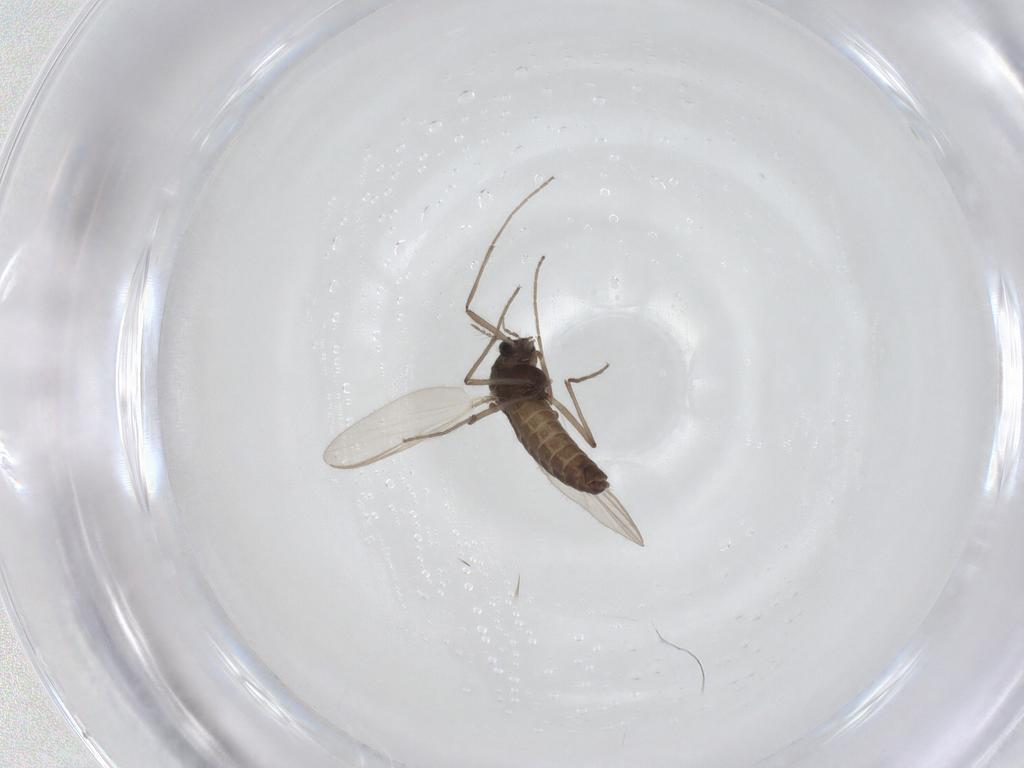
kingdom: Animalia
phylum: Arthropoda
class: Insecta
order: Diptera
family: Chironomidae
